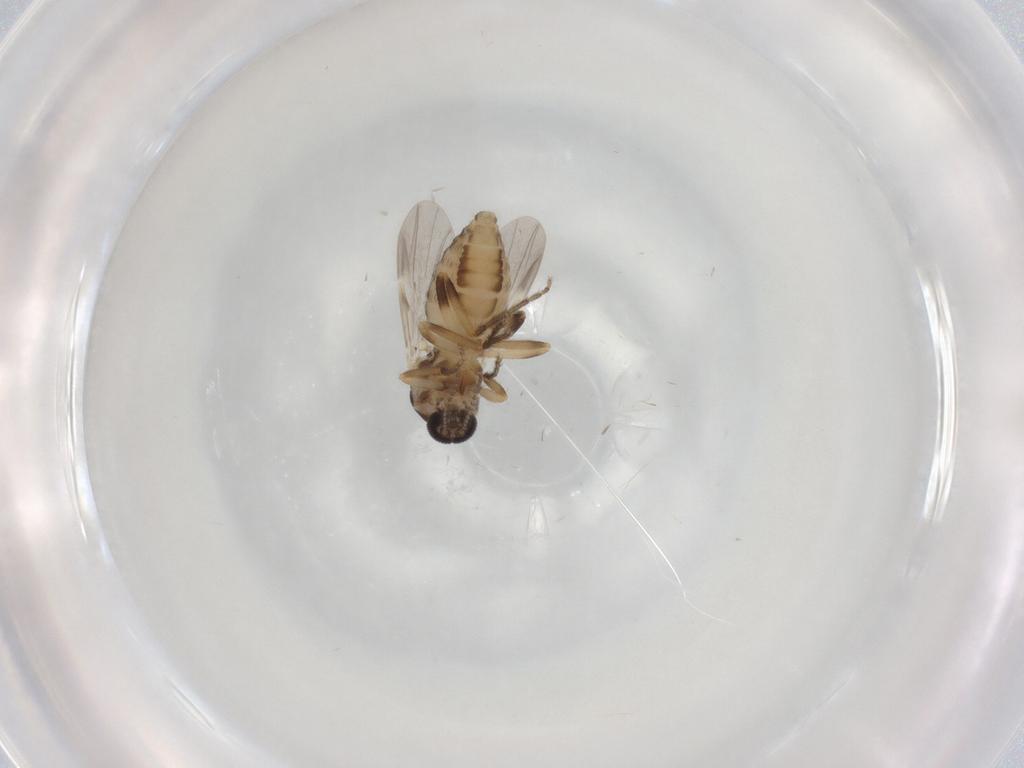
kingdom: Animalia
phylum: Arthropoda
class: Insecta
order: Diptera
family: Ceratopogonidae
